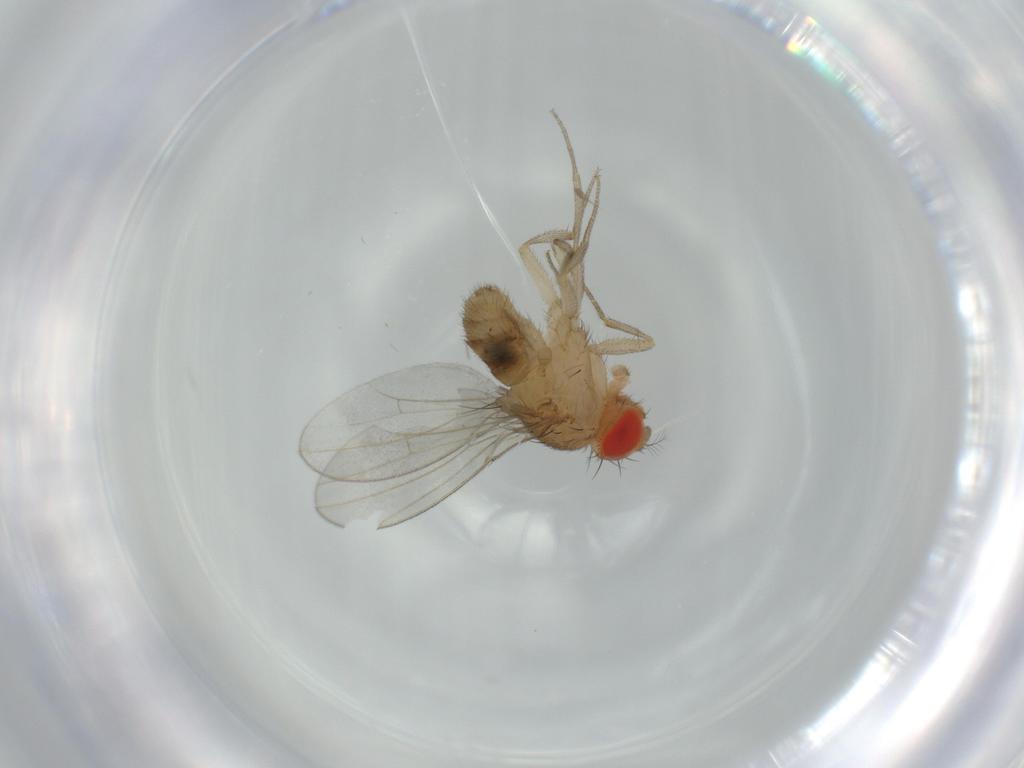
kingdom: Animalia
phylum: Arthropoda
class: Insecta
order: Diptera
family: Drosophilidae
